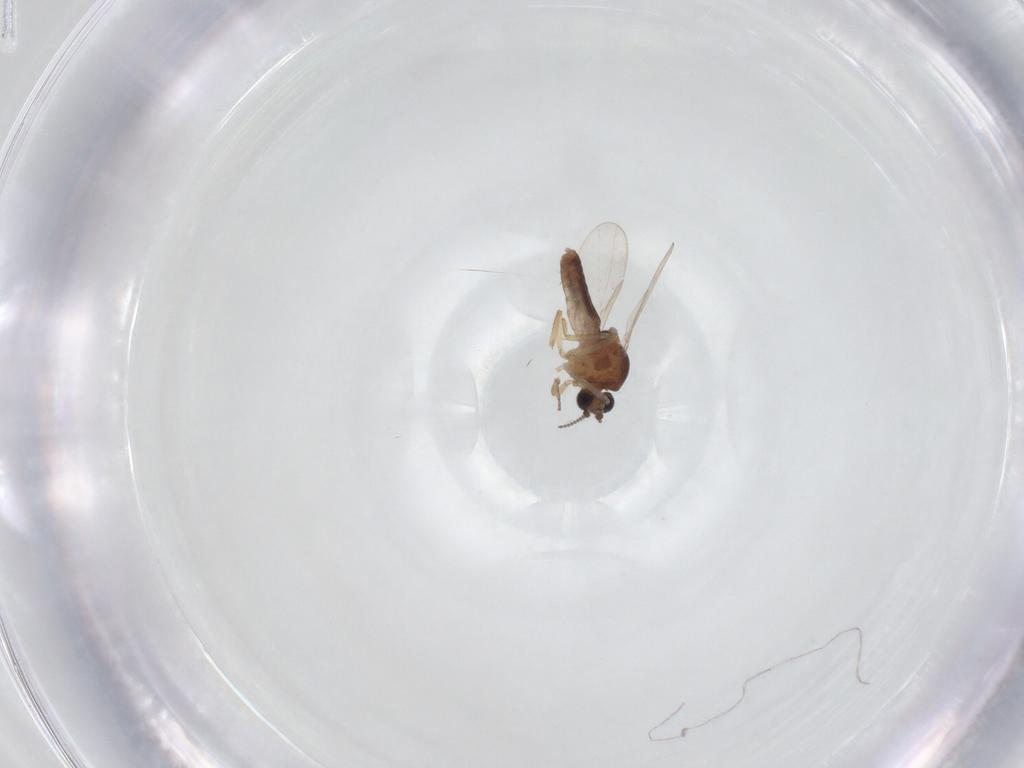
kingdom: Animalia
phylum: Arthropoda
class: Insecta
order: Diptera
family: Ceratopogonidae
